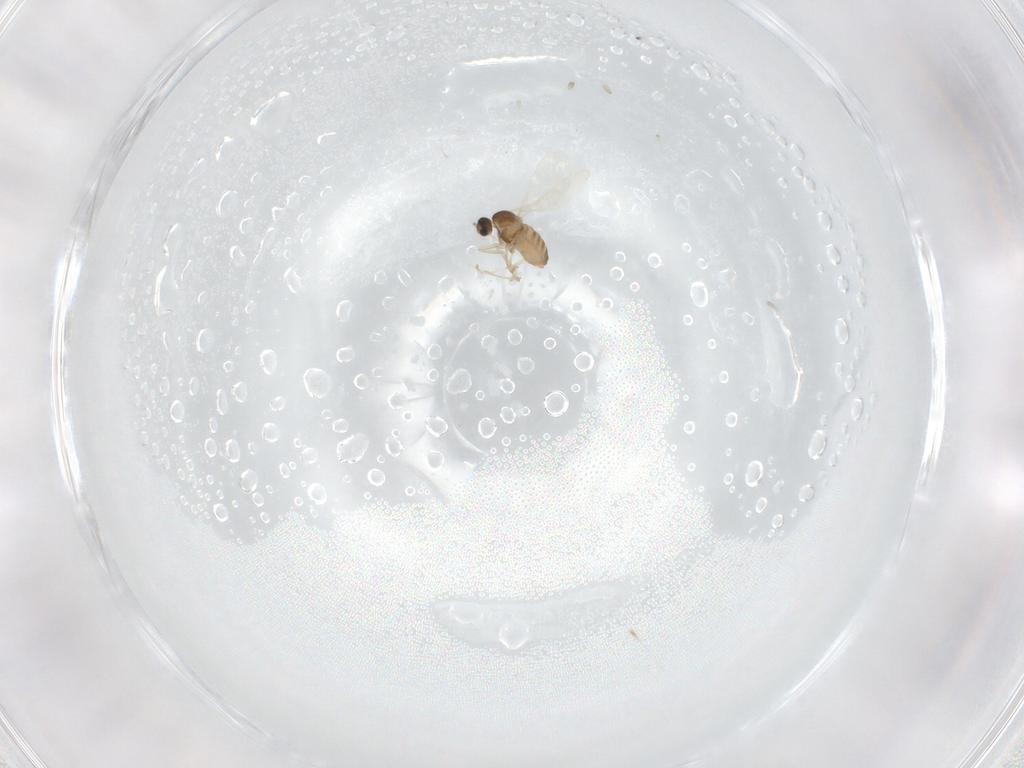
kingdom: Animalia
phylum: Arthropoda
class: Insecta
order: Diptera
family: Cecidomyiidae
